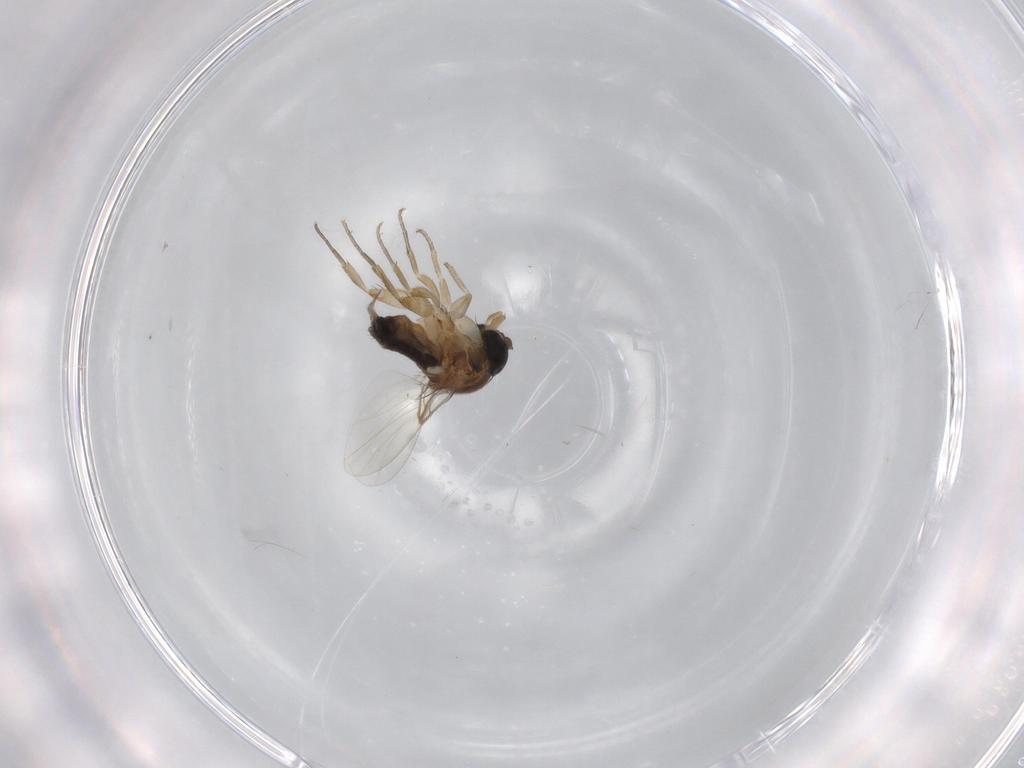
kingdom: Animalia
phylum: Arthropoda
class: Insecta
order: Diptera
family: Phoridae
